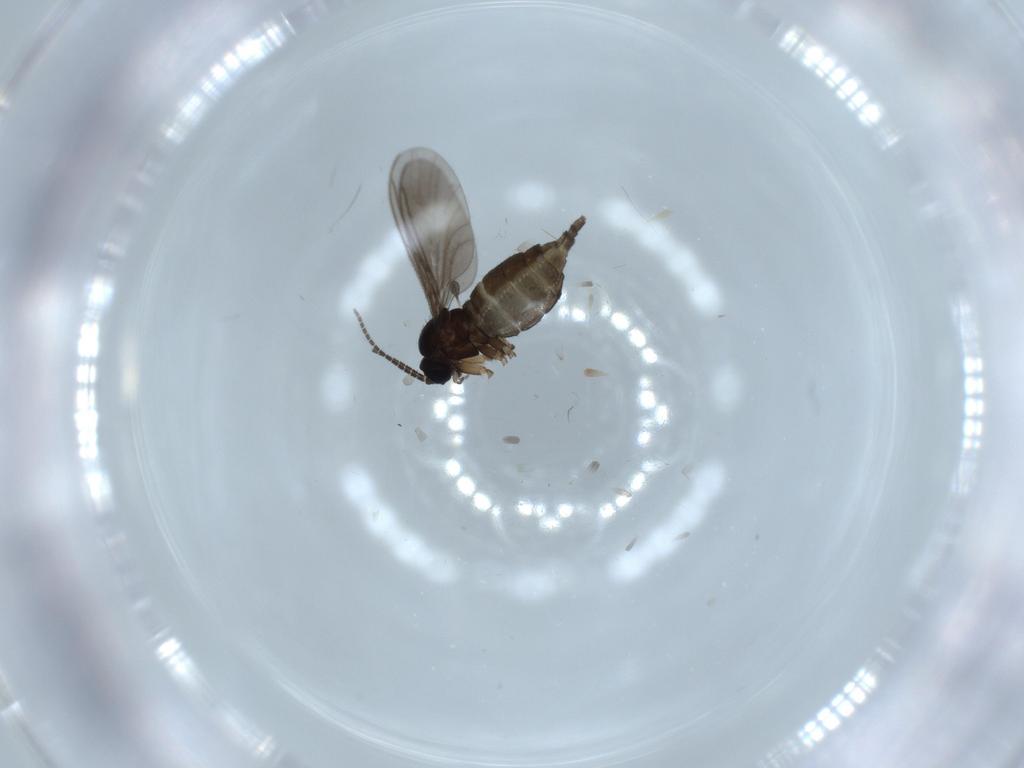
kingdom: Animalia
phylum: Arthropoda
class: Insecta
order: Diptera
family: Sciaridae
